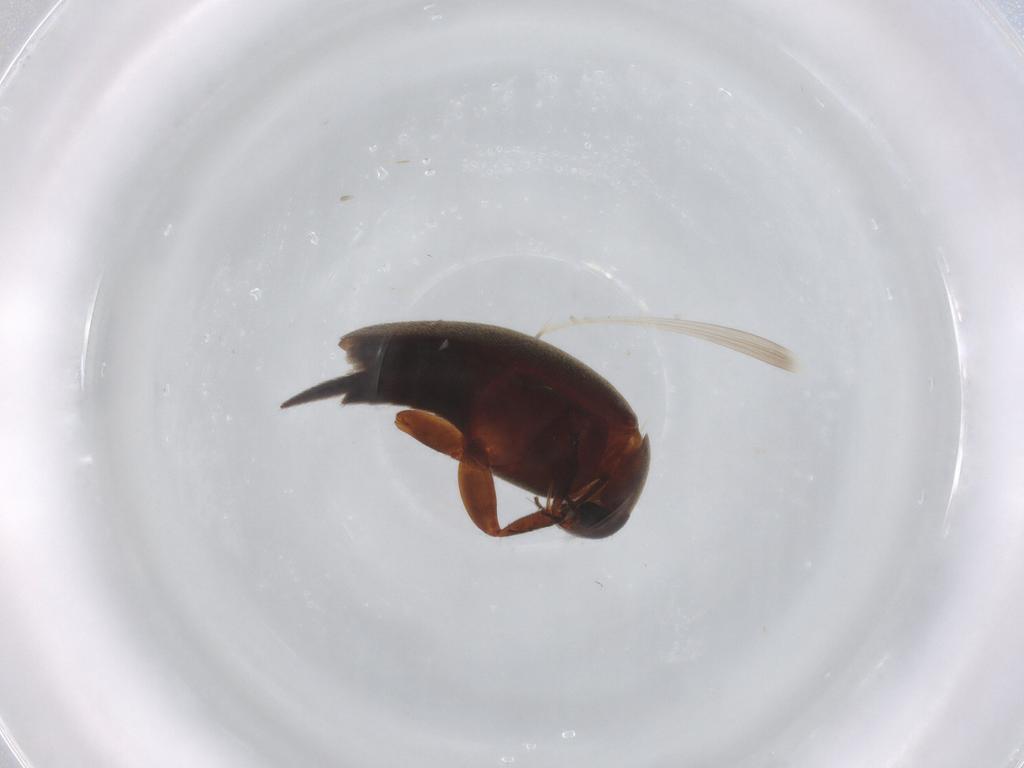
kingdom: Animalia
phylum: Arthropoda
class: Insecta
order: Coleoptera
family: Mordellidae
